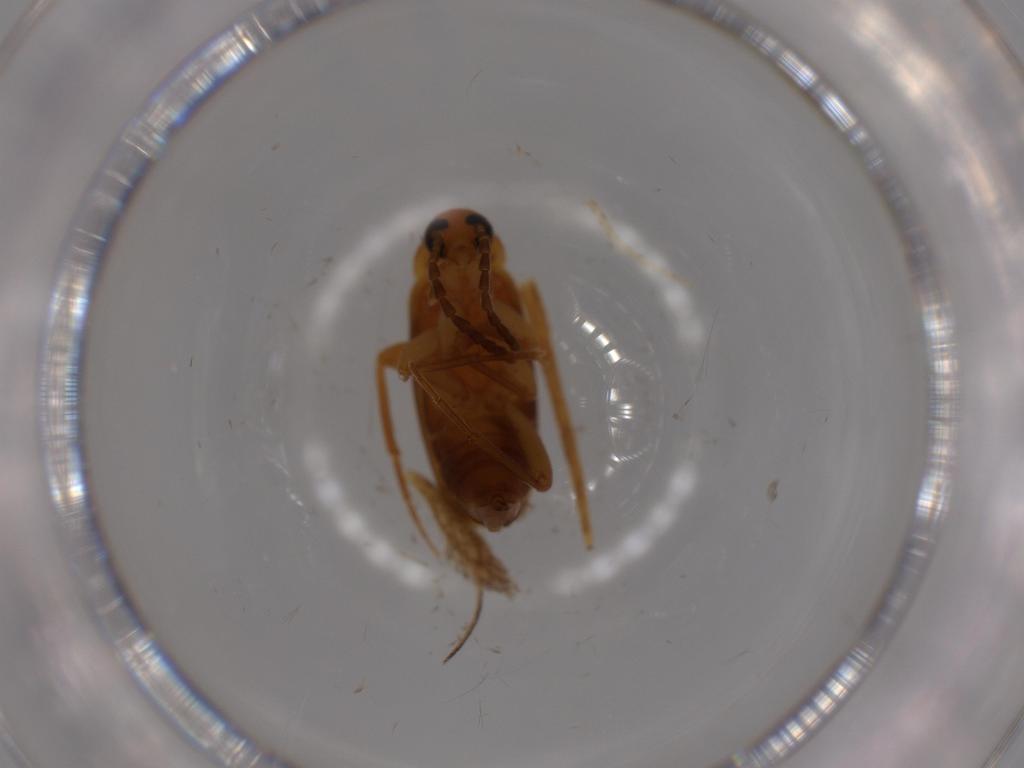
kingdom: Animalia
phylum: Arthropoda
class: Insecta
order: Coleoptera
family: Scraptiidae
